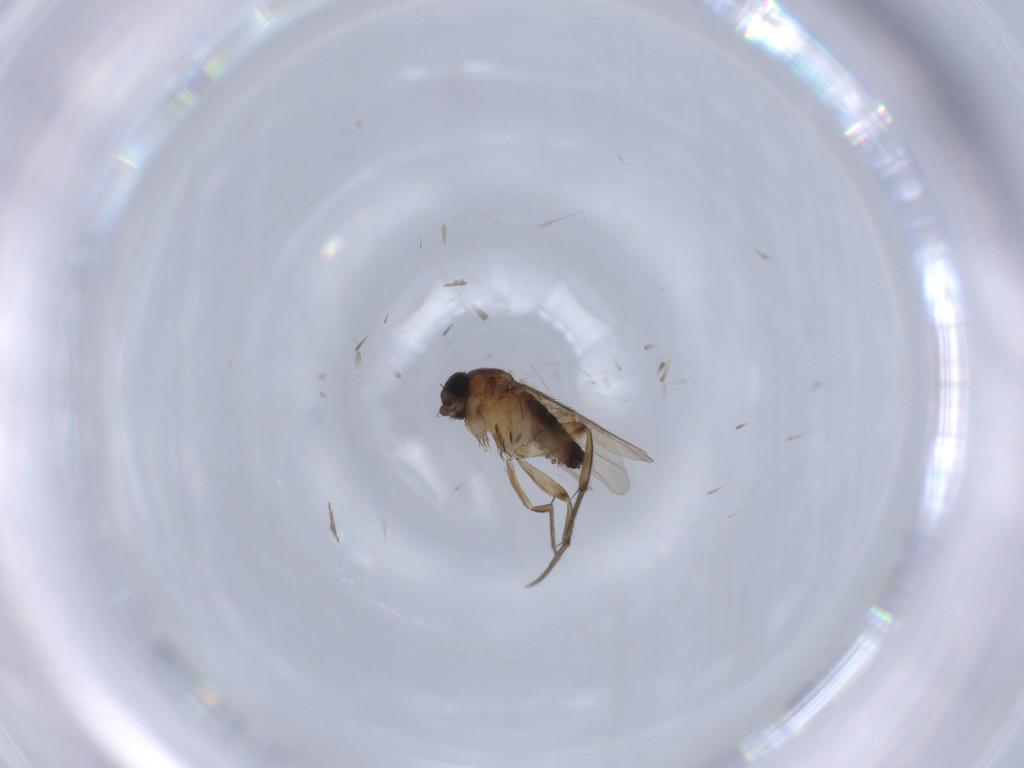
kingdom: Animalia
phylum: Arthropoda
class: Insecta
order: Diptera
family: Phoridae
